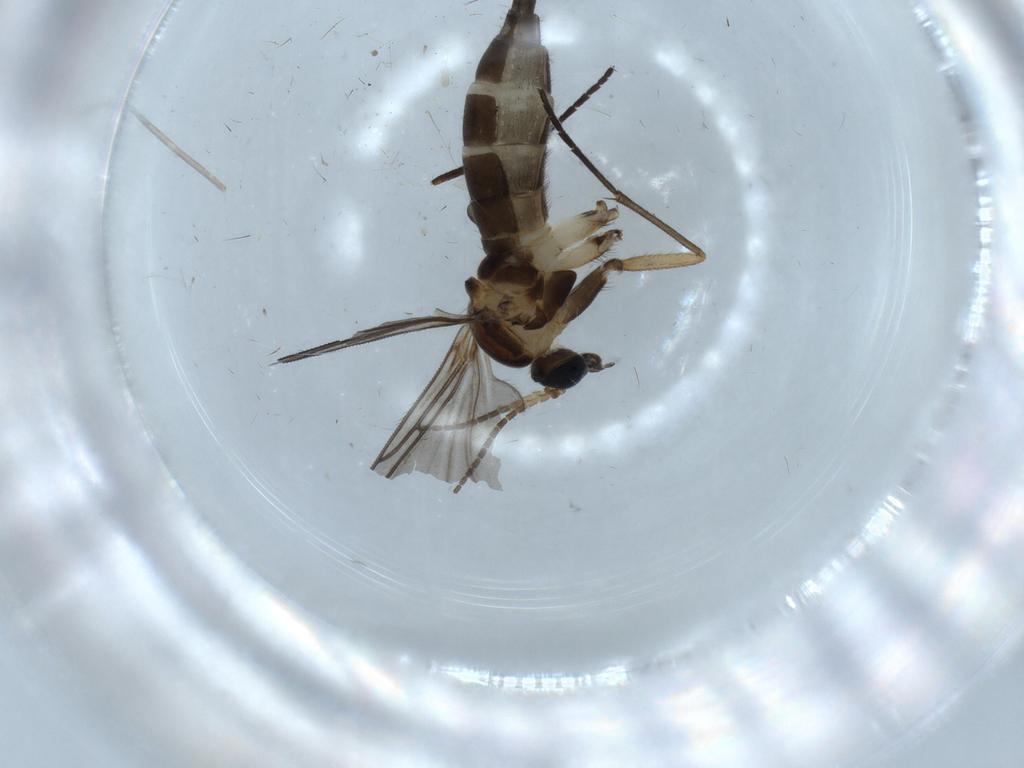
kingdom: Animalia
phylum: Arthropoda
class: Insecta
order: Diptera
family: Sciaridae
